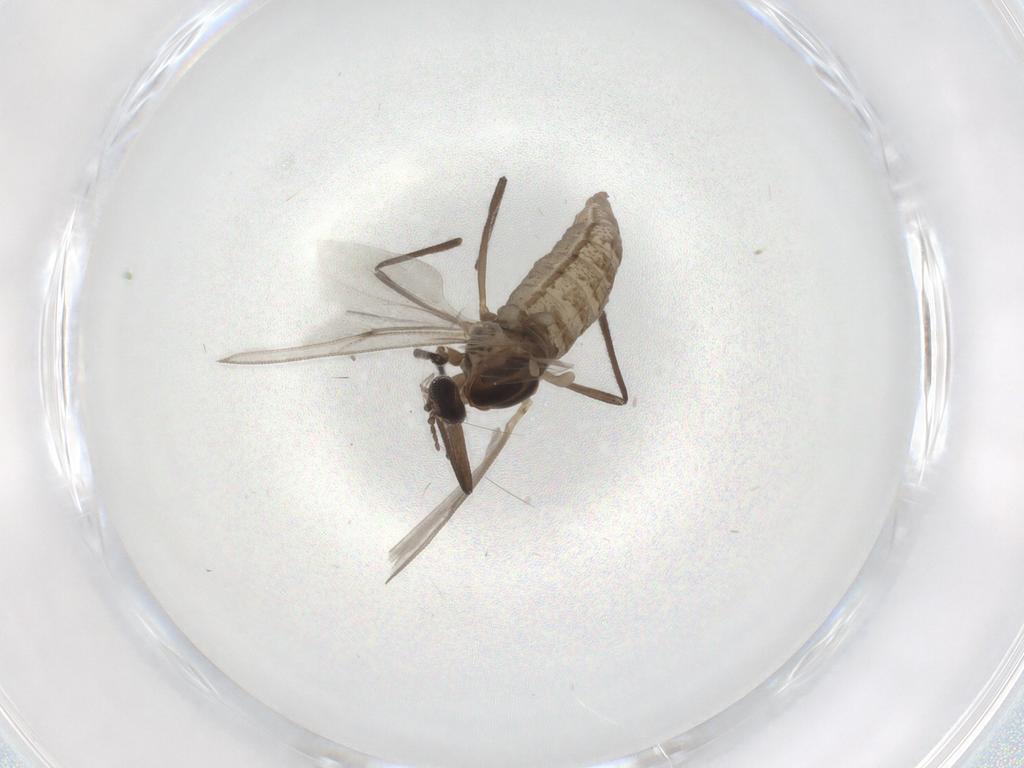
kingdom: Animalia
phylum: Arthropoda
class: Insecta
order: Diptera
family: Cecidomyiidae
